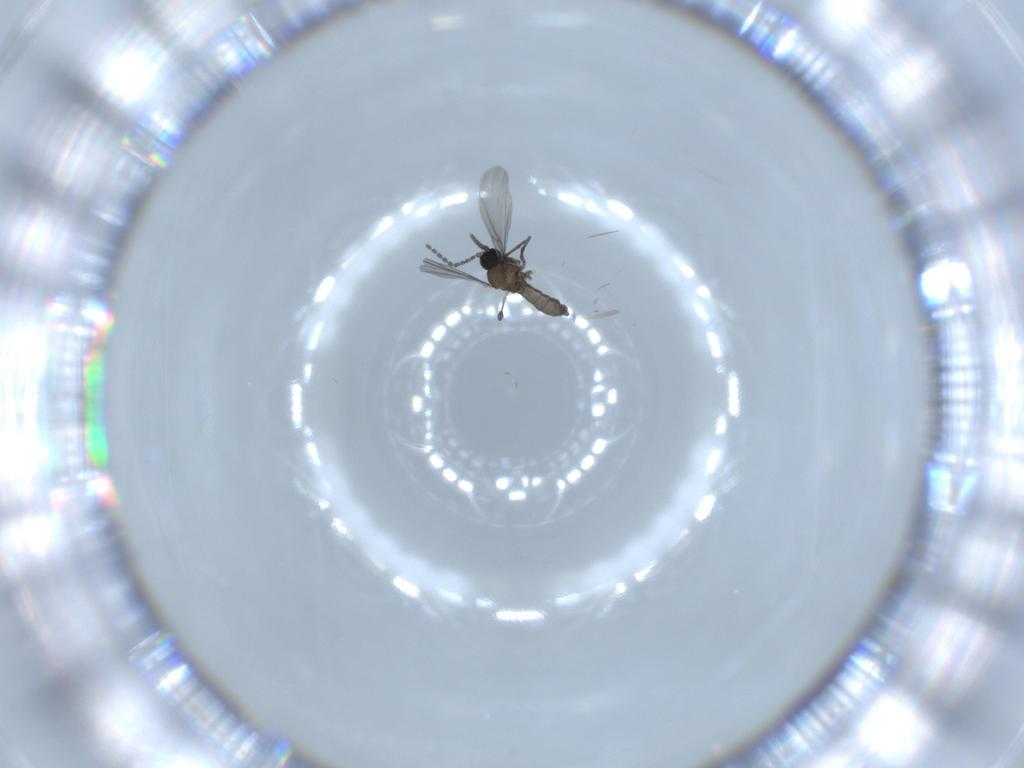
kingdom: Animalia
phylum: Arthropoda
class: Insecta
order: Diptera
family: Sciaridae
